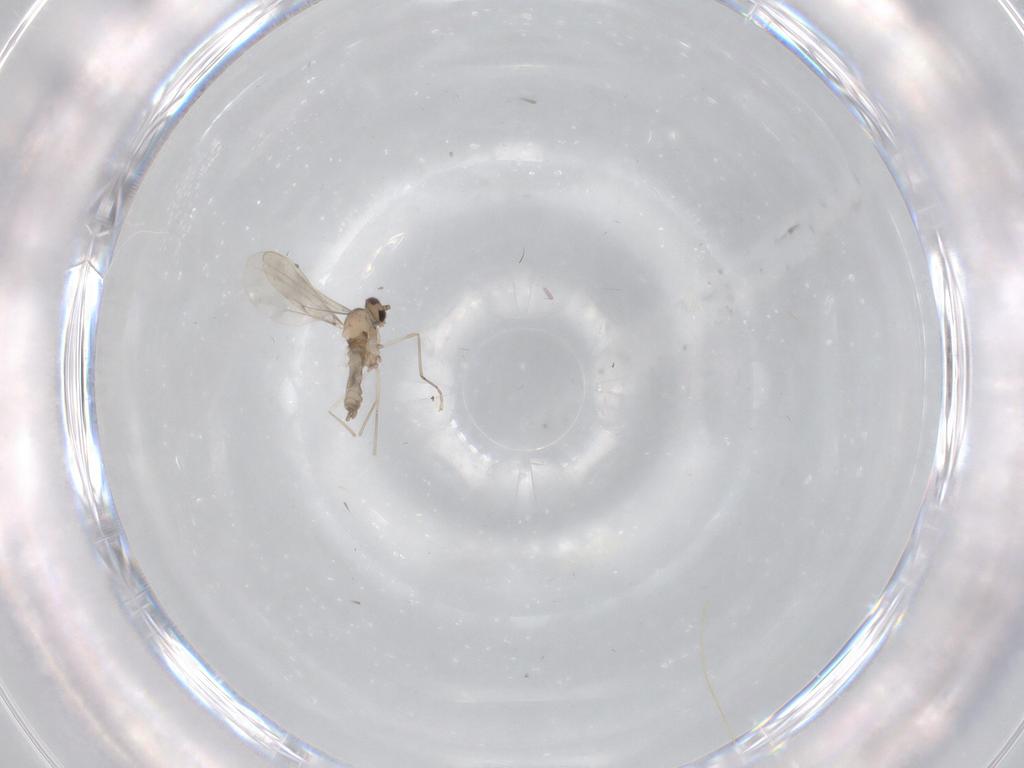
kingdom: Animalia
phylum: Arthropoda
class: Insecta
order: Diptera
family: Cecidomyiidae
